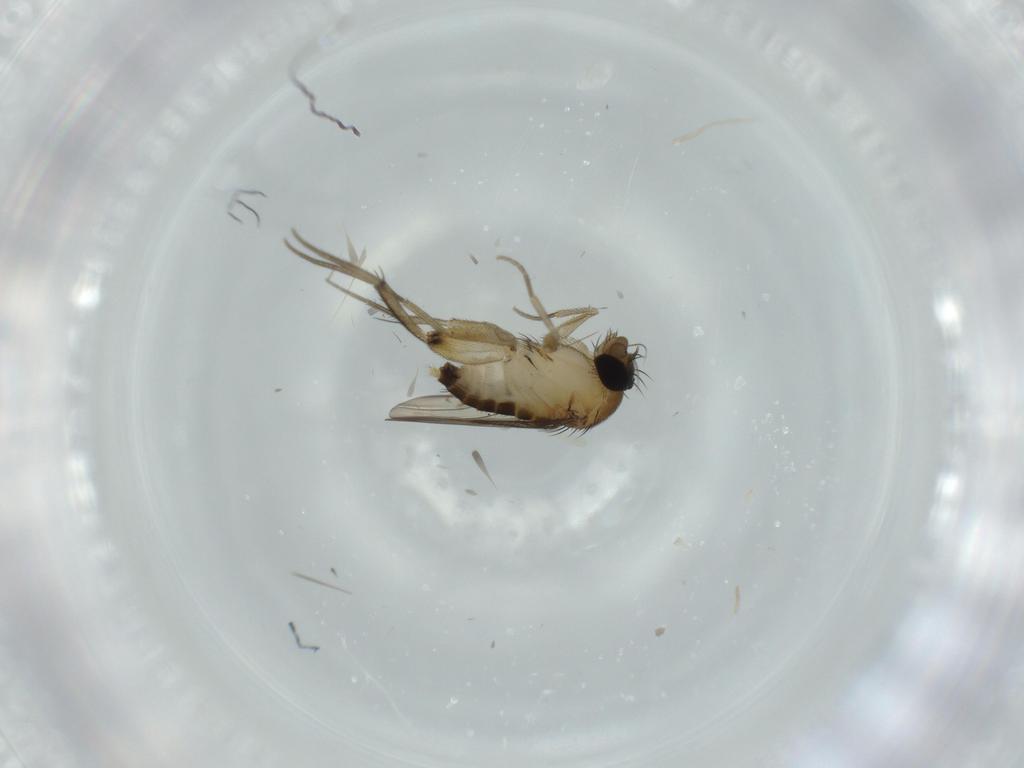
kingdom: Animalia
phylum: Arthropoda
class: Insecta
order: Diptera
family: Phoridae
